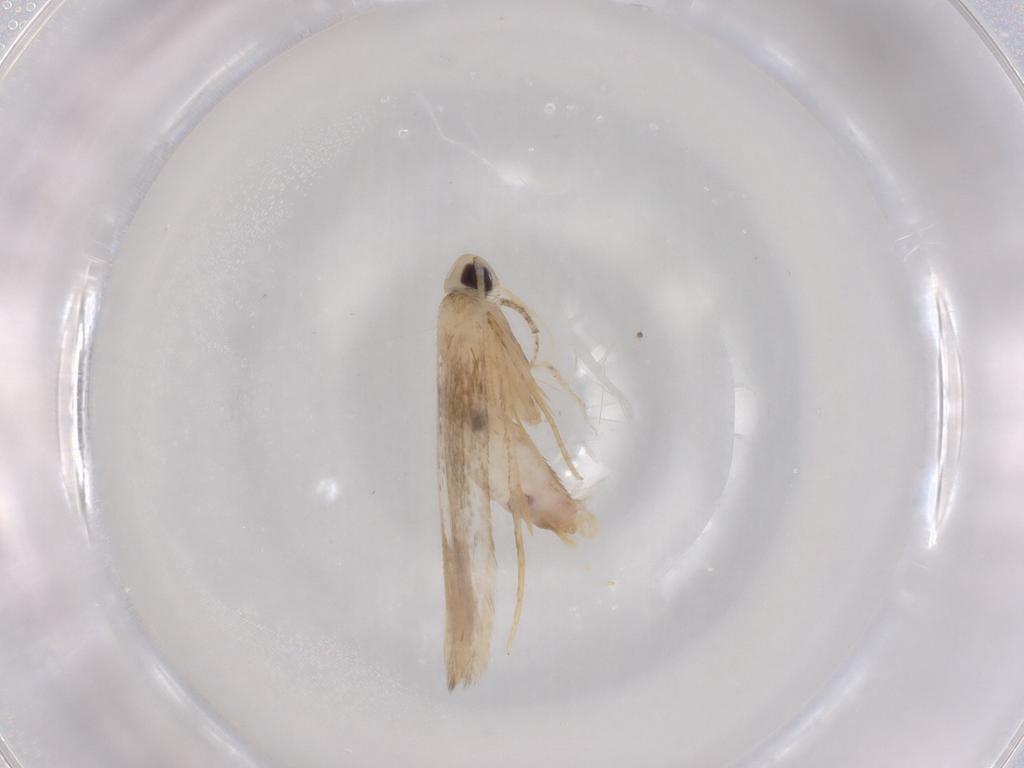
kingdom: Animalia
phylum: Arthropoda
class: Insecta
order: Lepidoptera
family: Coleophoridae
